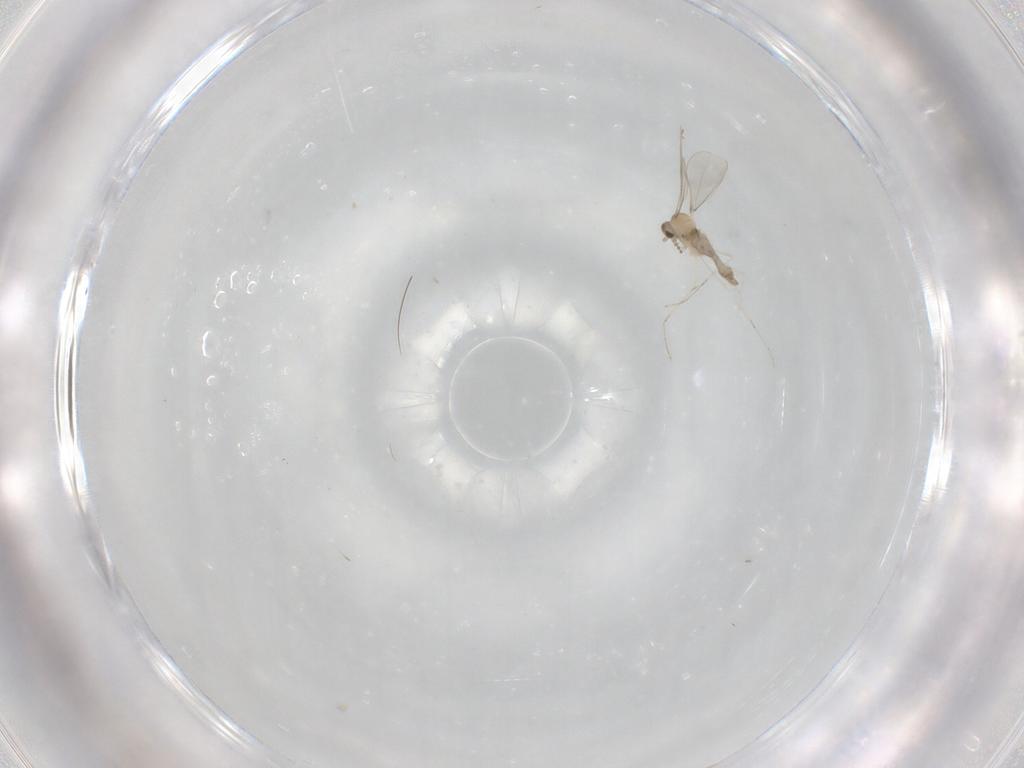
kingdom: Animalia
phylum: Arthropoda
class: Insecta
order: Diptera
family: Cecidomyiidae
